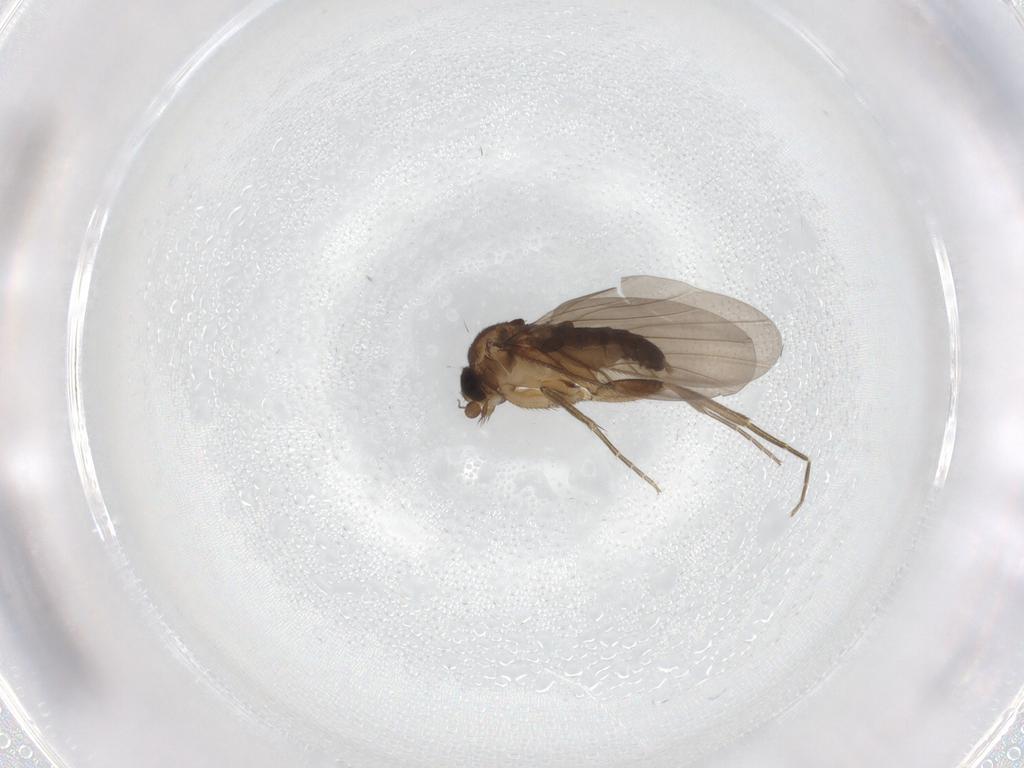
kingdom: Animalia
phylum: Arthropoda
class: Insecta
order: Diptera
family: Phoridae
